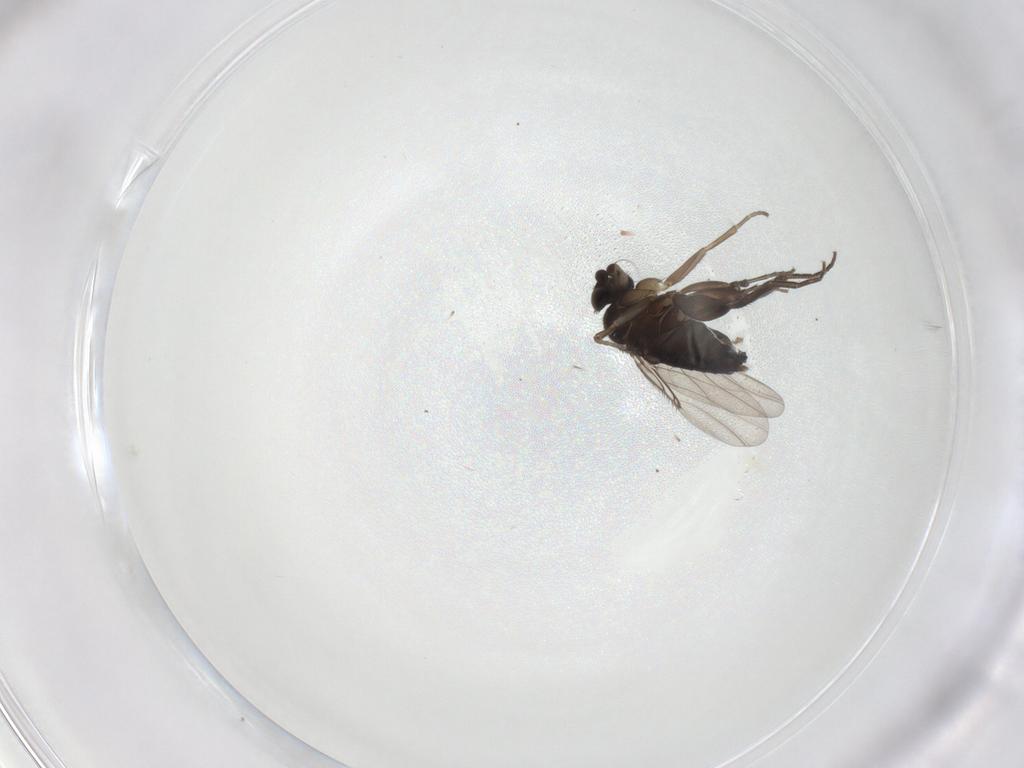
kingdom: Animalia
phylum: Arthropoda
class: Insecta
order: Diptera
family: Phoridae
